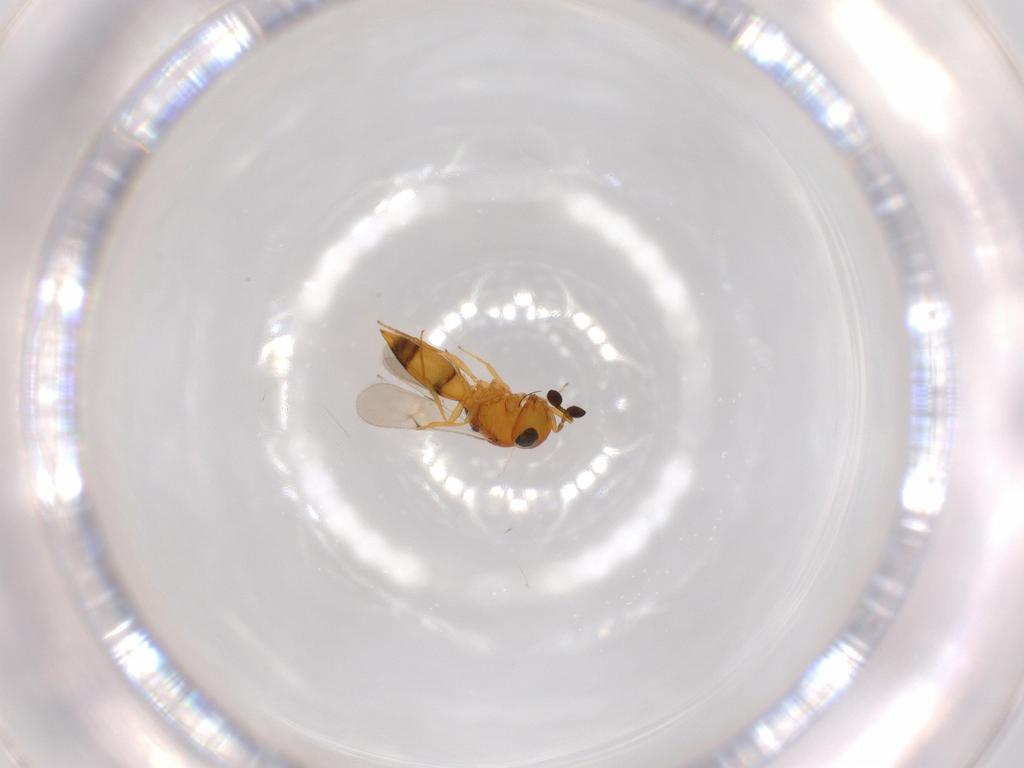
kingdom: Animalia
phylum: Arthropoda
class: Insecta
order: Hymenoptera
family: Scelionidae
